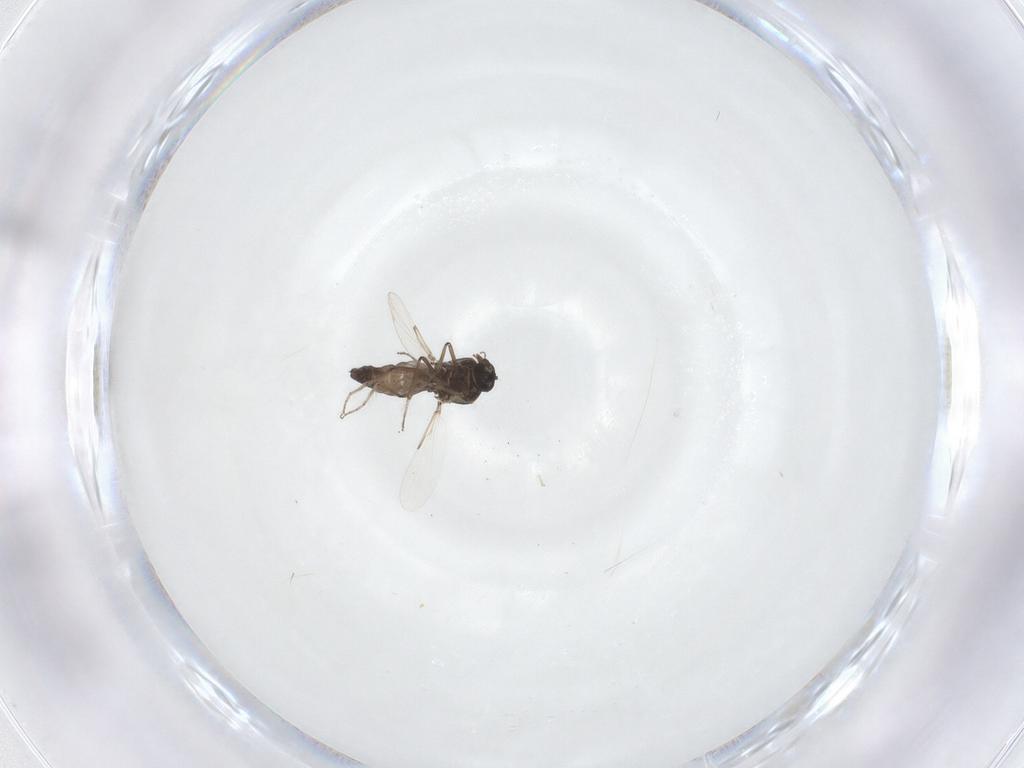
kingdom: Animalia
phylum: Arthropoda
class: Insecta
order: Diptera
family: Ceratopogonidae
